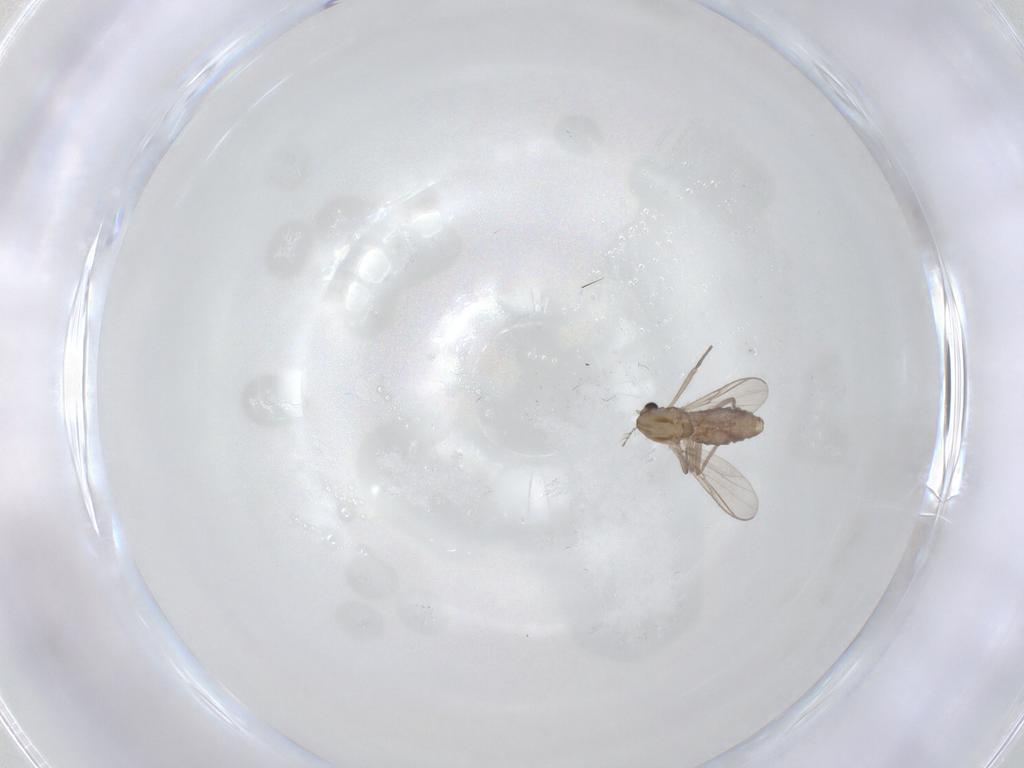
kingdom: Animalia
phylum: Arthropoda
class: Insecta
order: Diptera
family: Chironomidae
